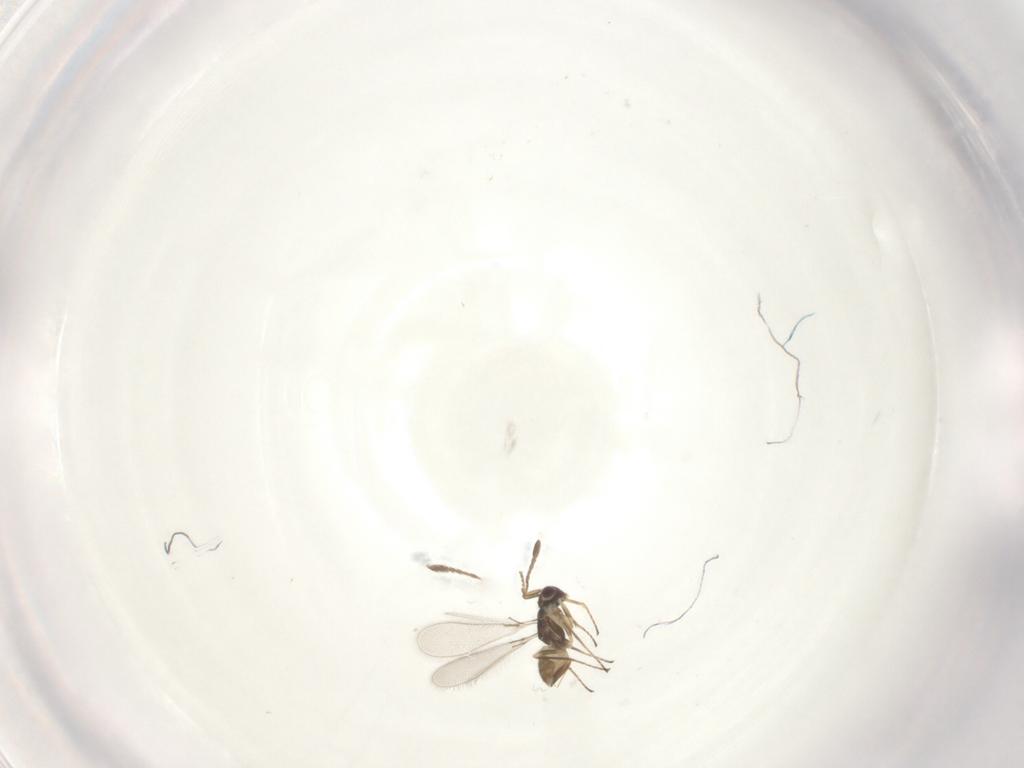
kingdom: Animalia
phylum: Arthropoda
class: Insecta
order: Hymenoptera
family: Mymaridae
